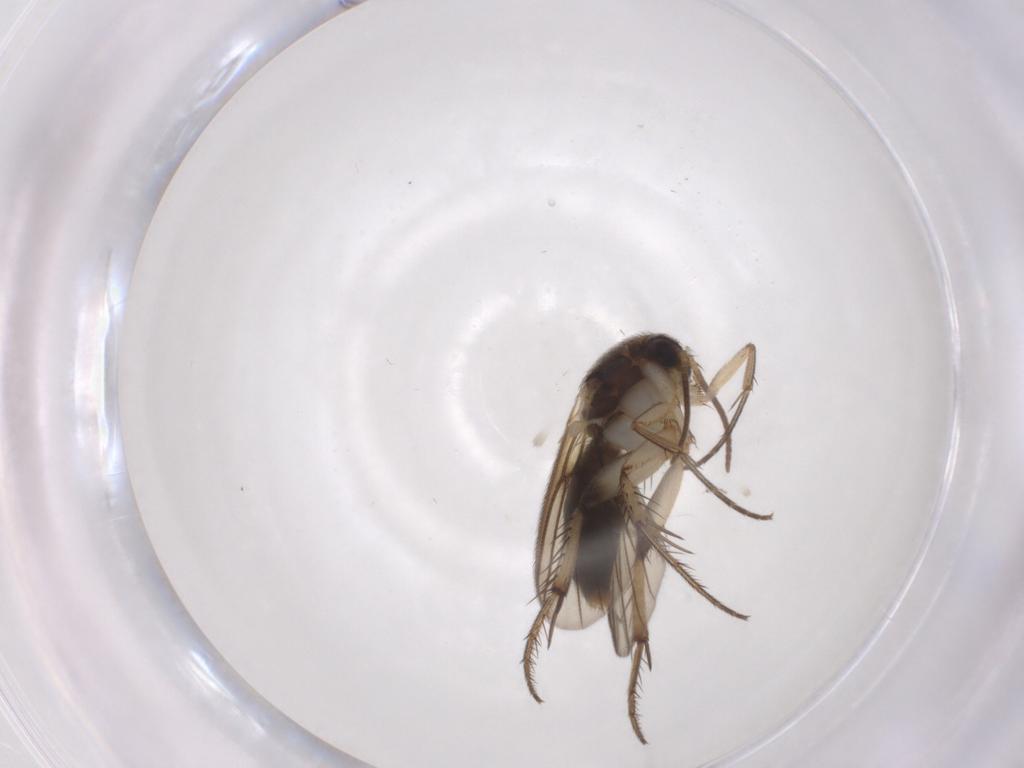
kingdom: Animalia
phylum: Arthropoda
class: Insecta
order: Diptera
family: Mycetophilidae
